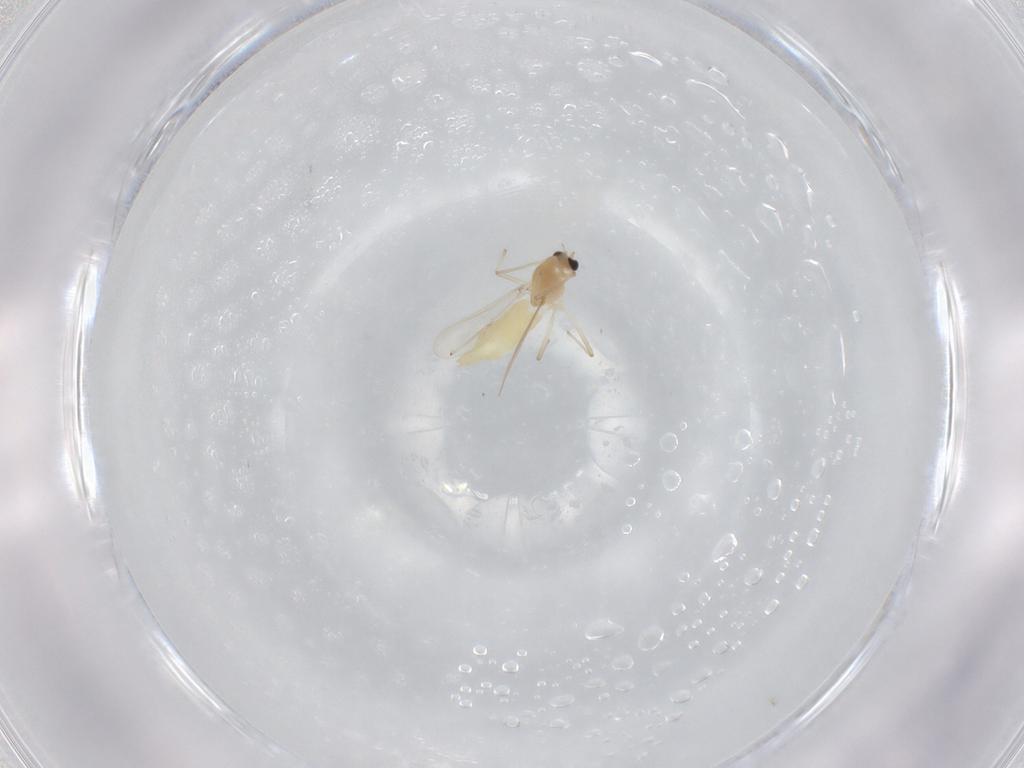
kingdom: Animalia
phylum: Arthropoda
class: Insecta
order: Diptera
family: Chironomidae
